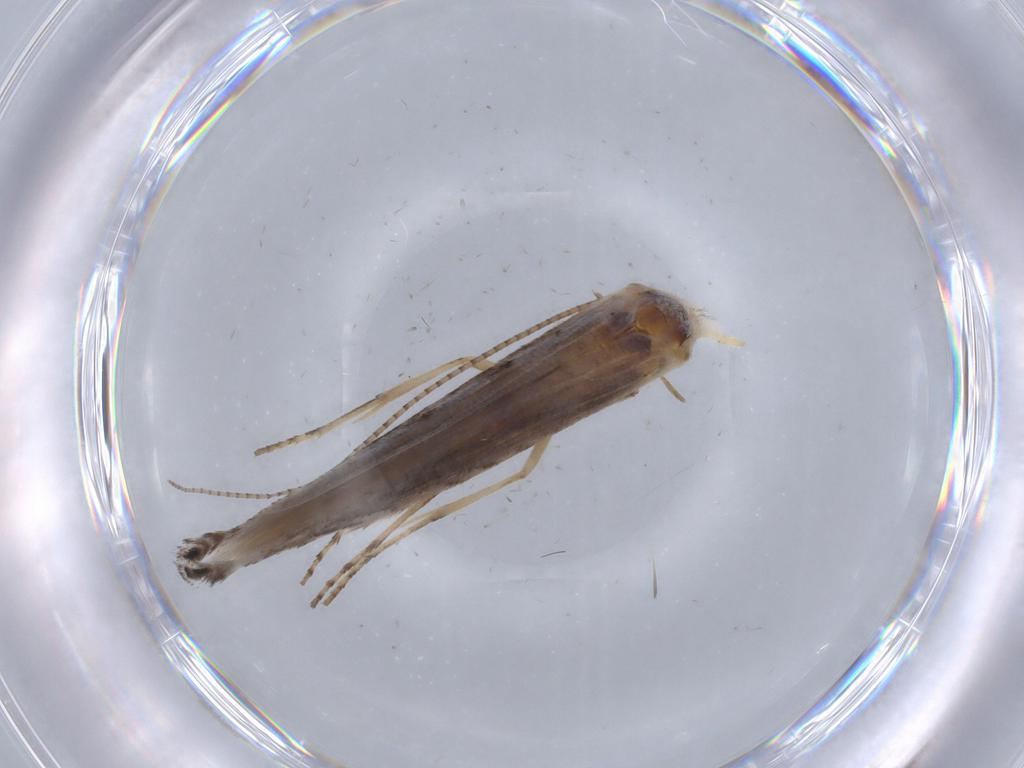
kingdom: Animalia
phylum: Arthropoda
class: Insecta
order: Lepidoptera
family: Lyonetiidae
